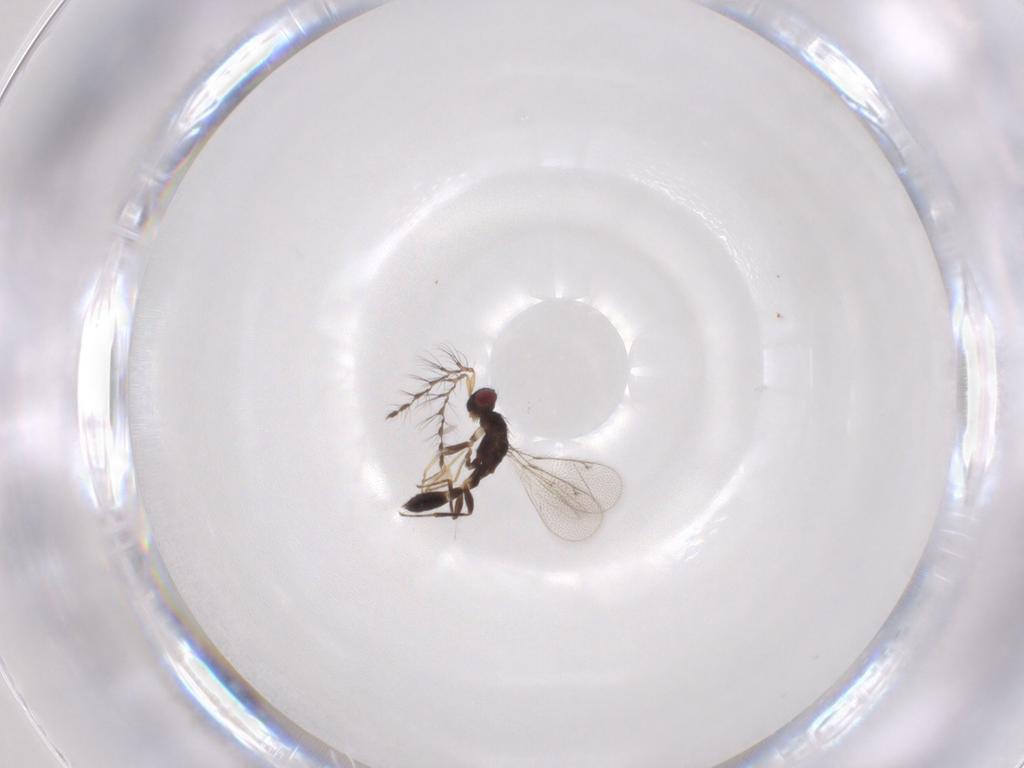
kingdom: Animalia
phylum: Arthropoda
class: Insecta
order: Hymenoptera
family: Eulophidae
